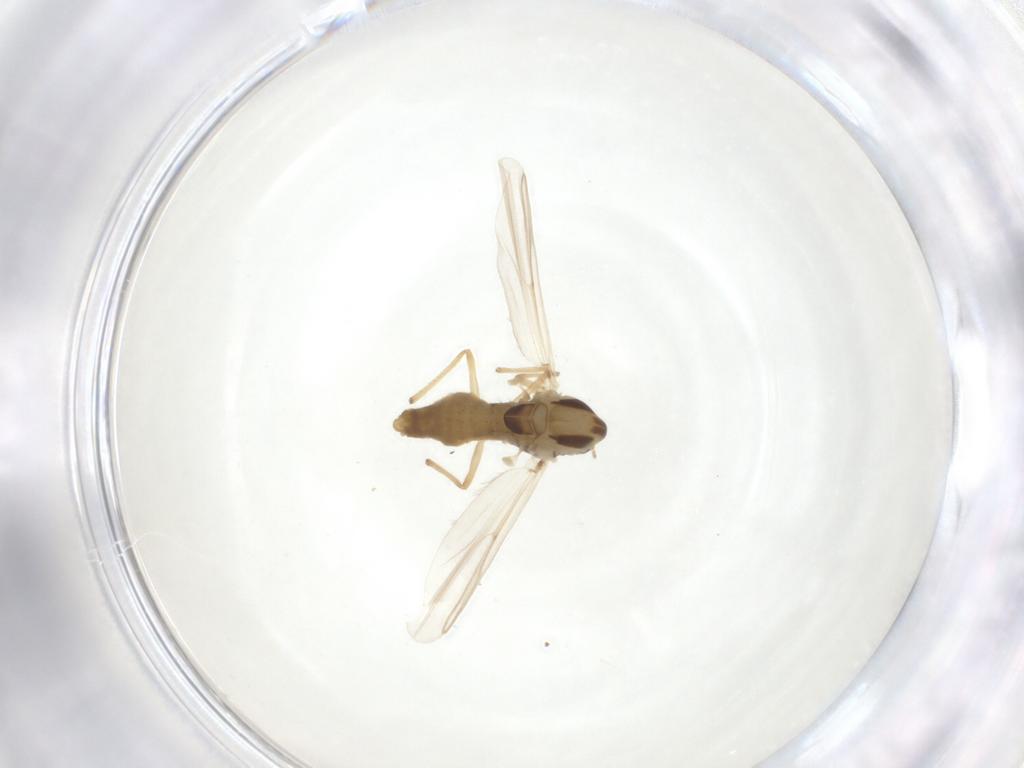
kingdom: Animalia
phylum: Arthropoda
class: Insecta
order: Diptera
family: Chironomidae
